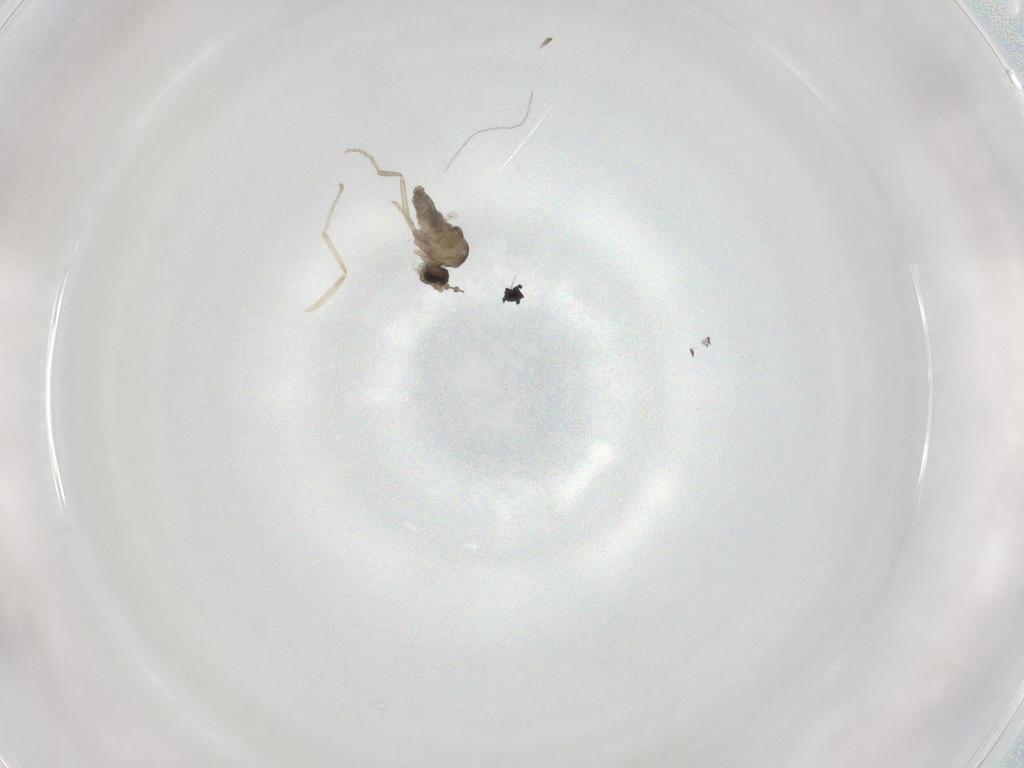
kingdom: Animalia
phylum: Arthropoda
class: Insecta
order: Diptera
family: Cecidomyiidae
